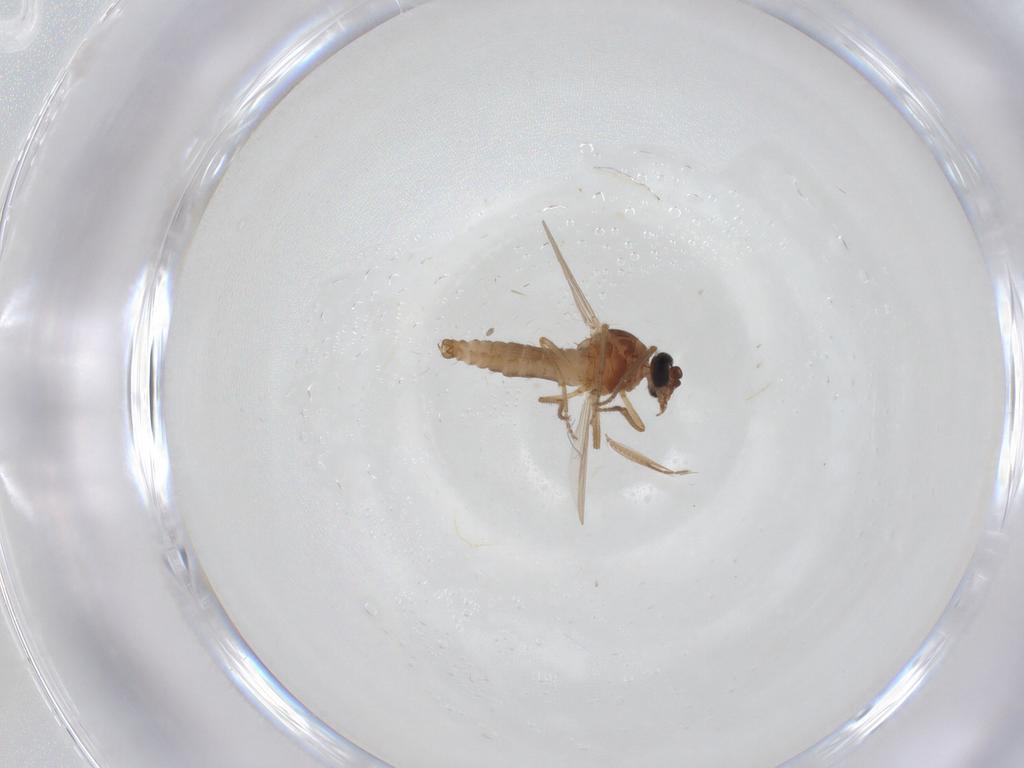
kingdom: Animalia
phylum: Arthropoda
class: Insecta
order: Diptera
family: Ceratopogonidae
